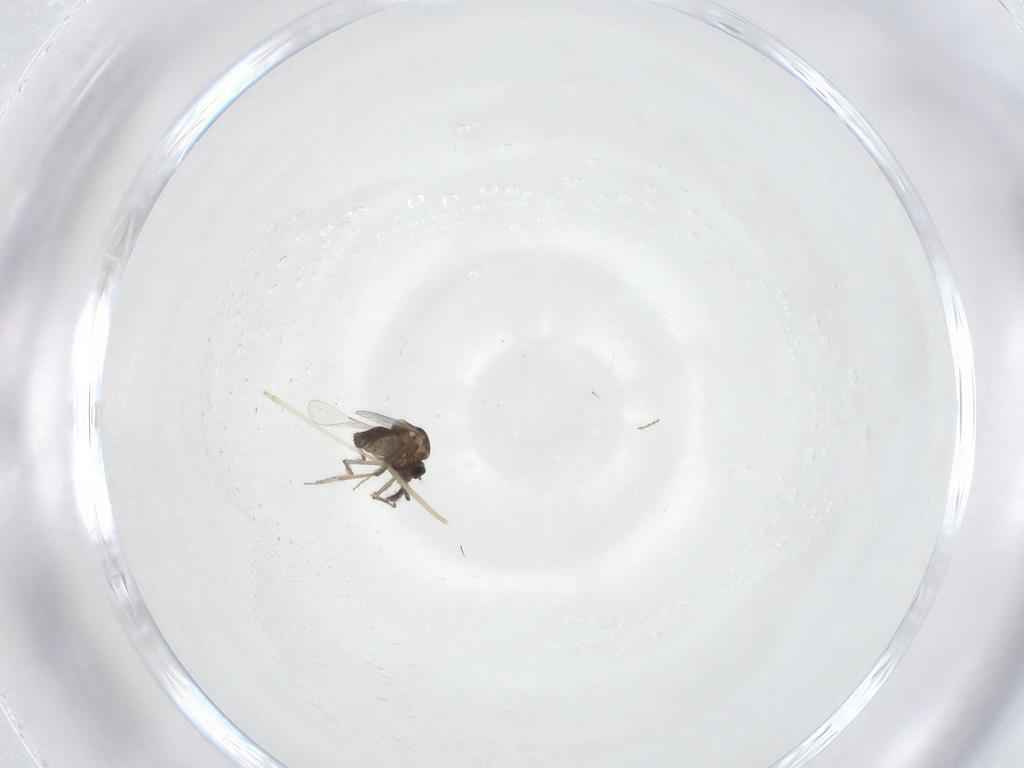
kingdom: Animalia
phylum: Arthropoda
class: Insecta
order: Diptera
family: Ceratopogonidae
